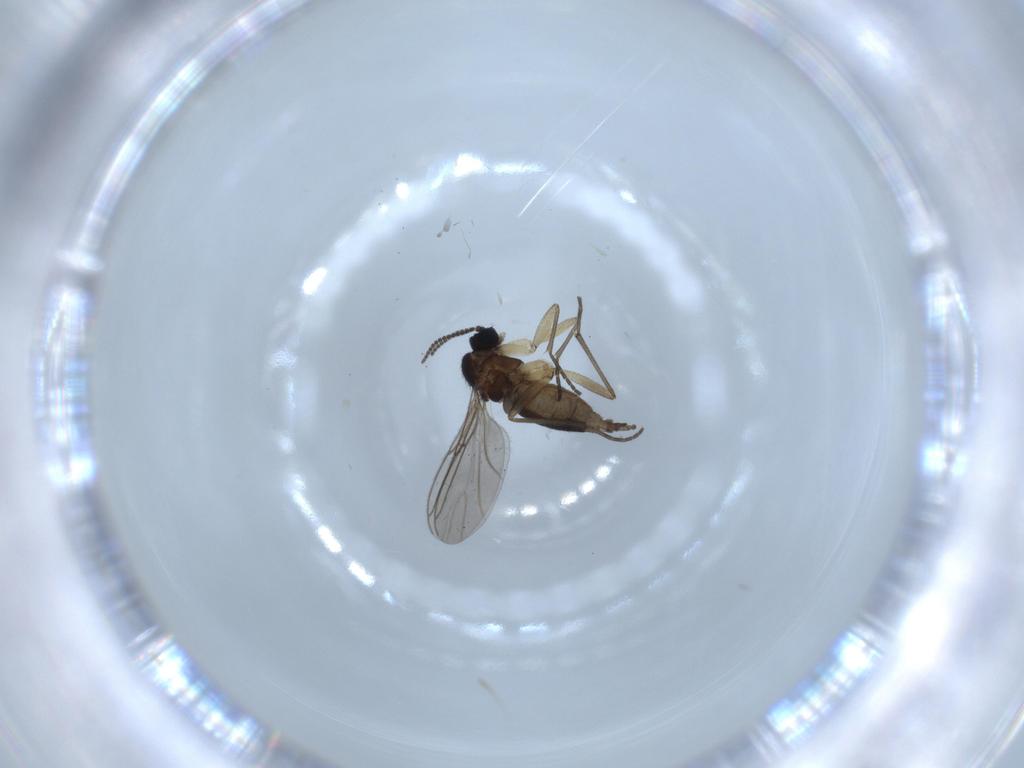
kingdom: Animalia
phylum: Arthropoda
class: Insecta
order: Diptera
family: Sciaridae
